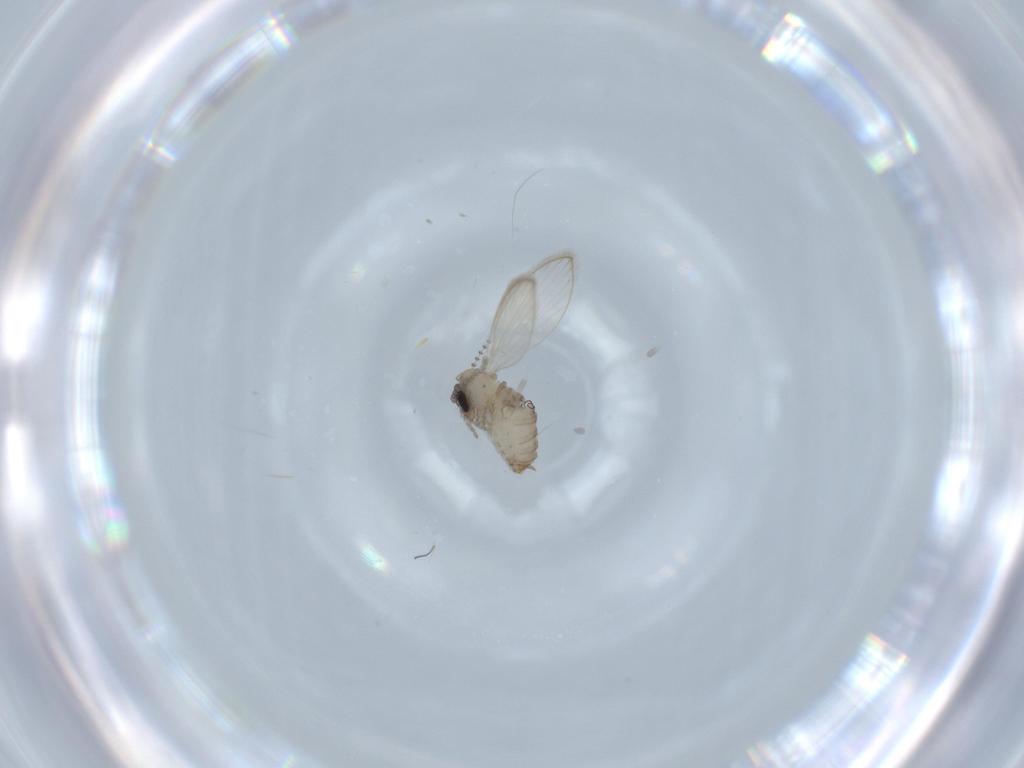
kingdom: Animalia
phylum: Arthropoda
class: Insecta
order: Diptera
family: Psychodidae
